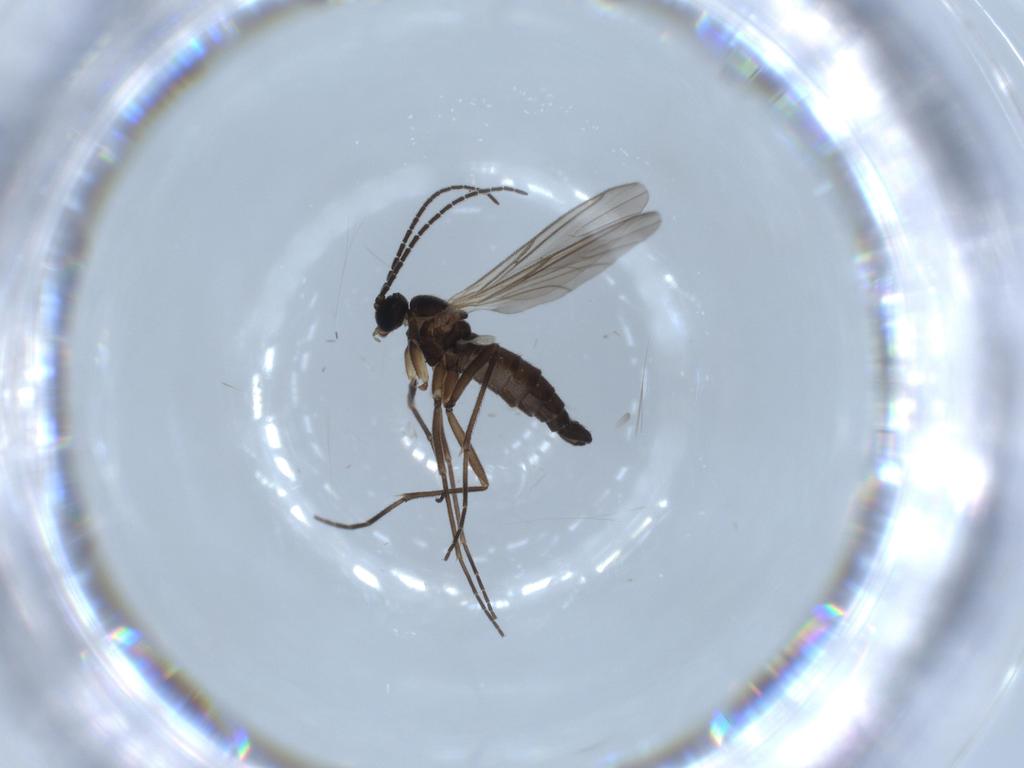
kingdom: Animalia
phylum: Arthropoda
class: Insecta
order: Diptera
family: Sciaridae
